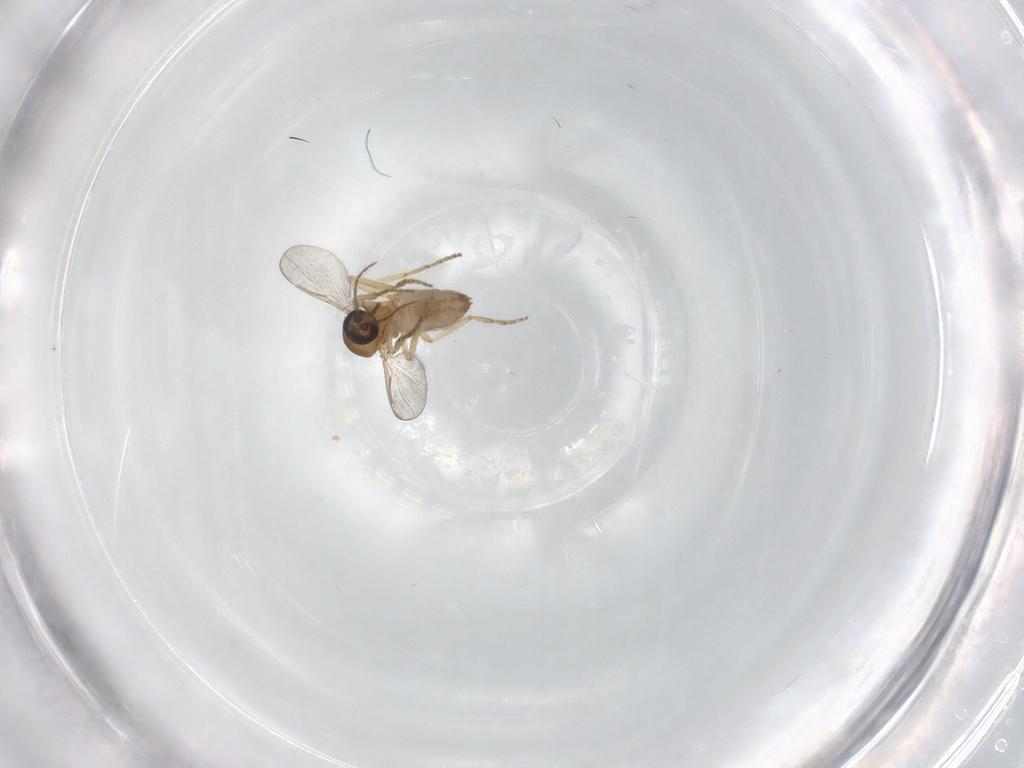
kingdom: Animalia
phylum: Arthropoda
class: Insecta
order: Diptera
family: Ceratopogonidae
